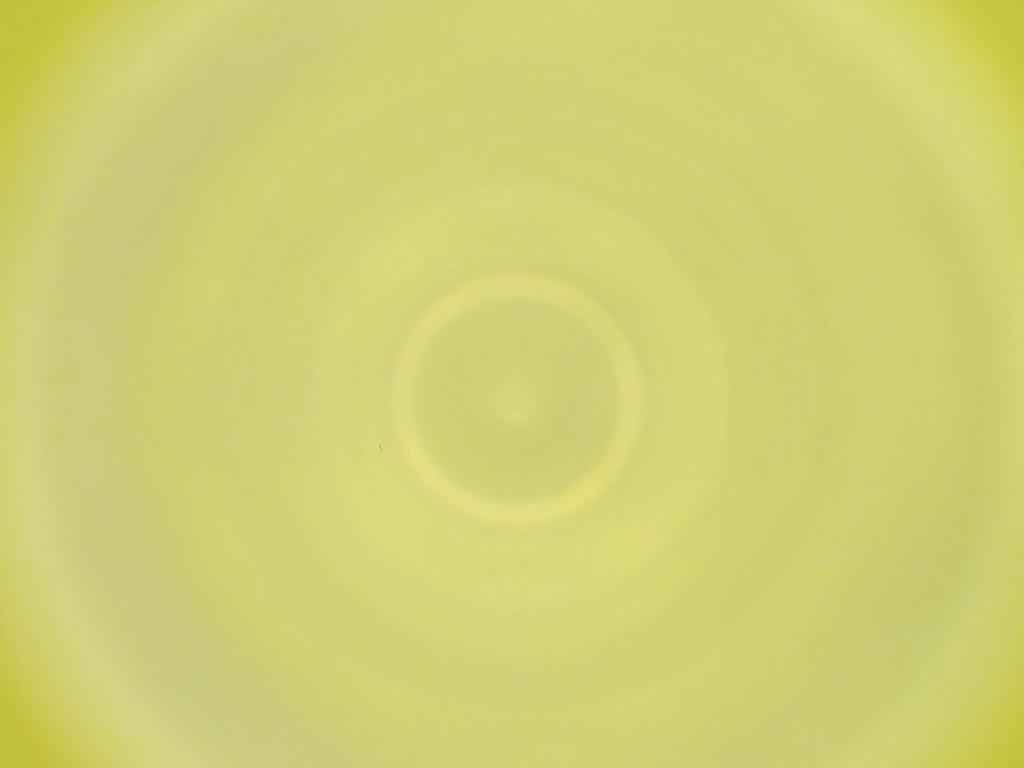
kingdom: Animalia
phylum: Arthropoda
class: Insecta
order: Diptera
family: Cecidomyiidae
